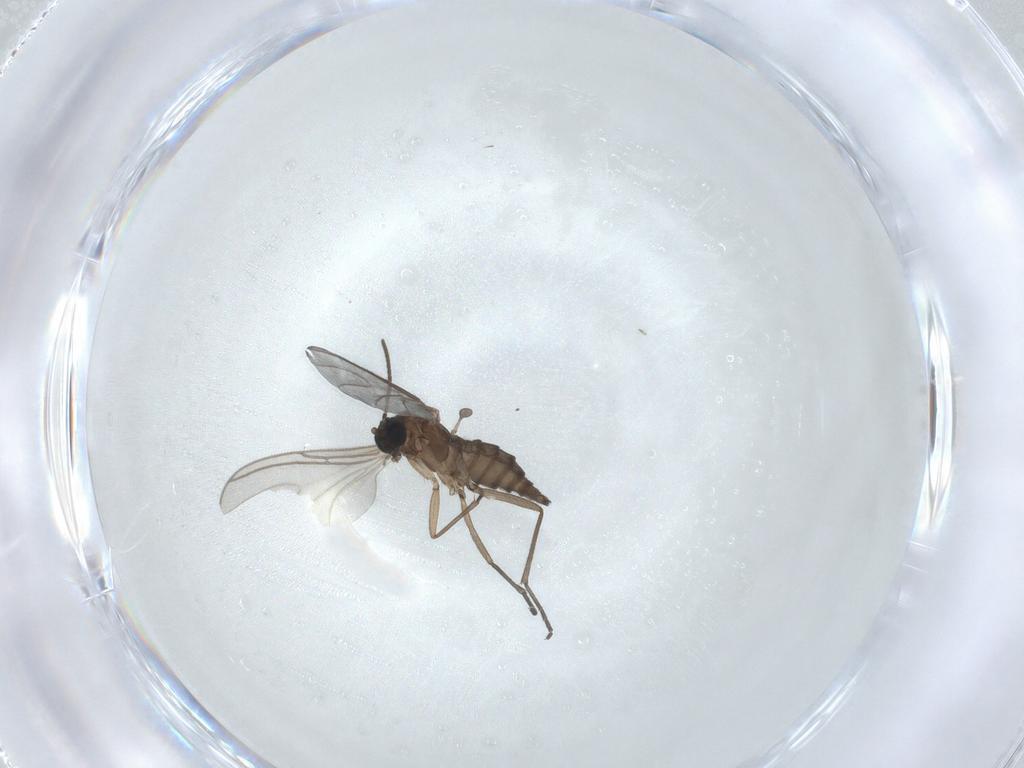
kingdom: Animalia
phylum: Arthropoda
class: Insecta
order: Diptera
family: Sciaridae
